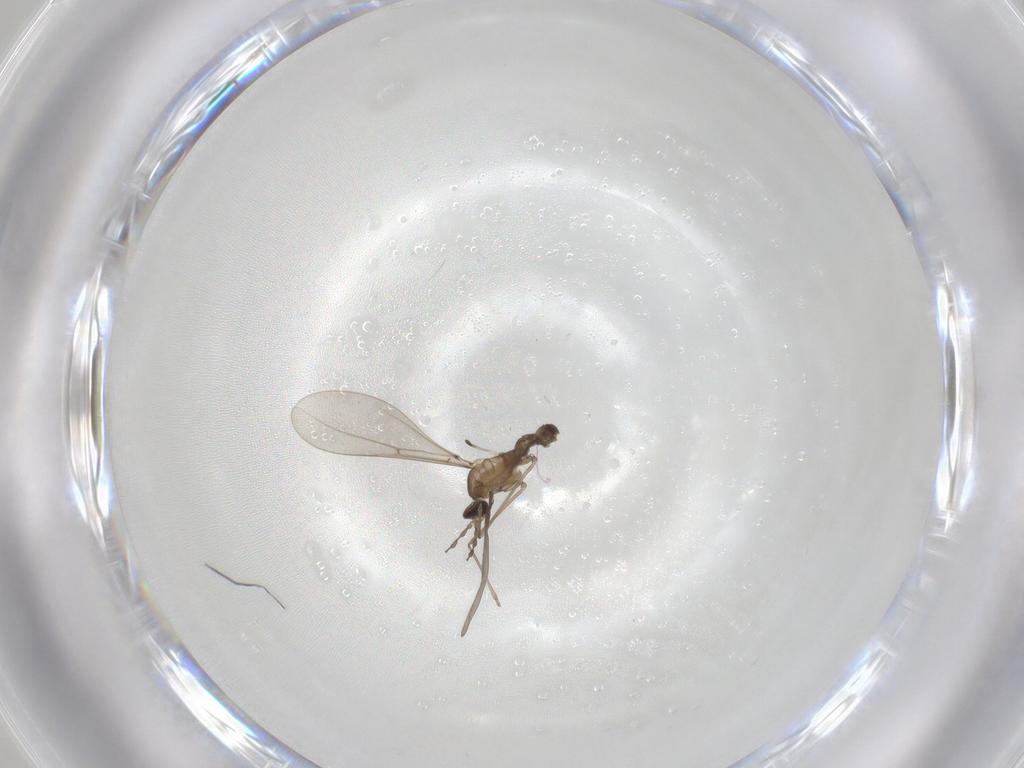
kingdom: Animalia
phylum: Arthropoda
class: Insecta
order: Diptera
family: Cecidomyiidae
